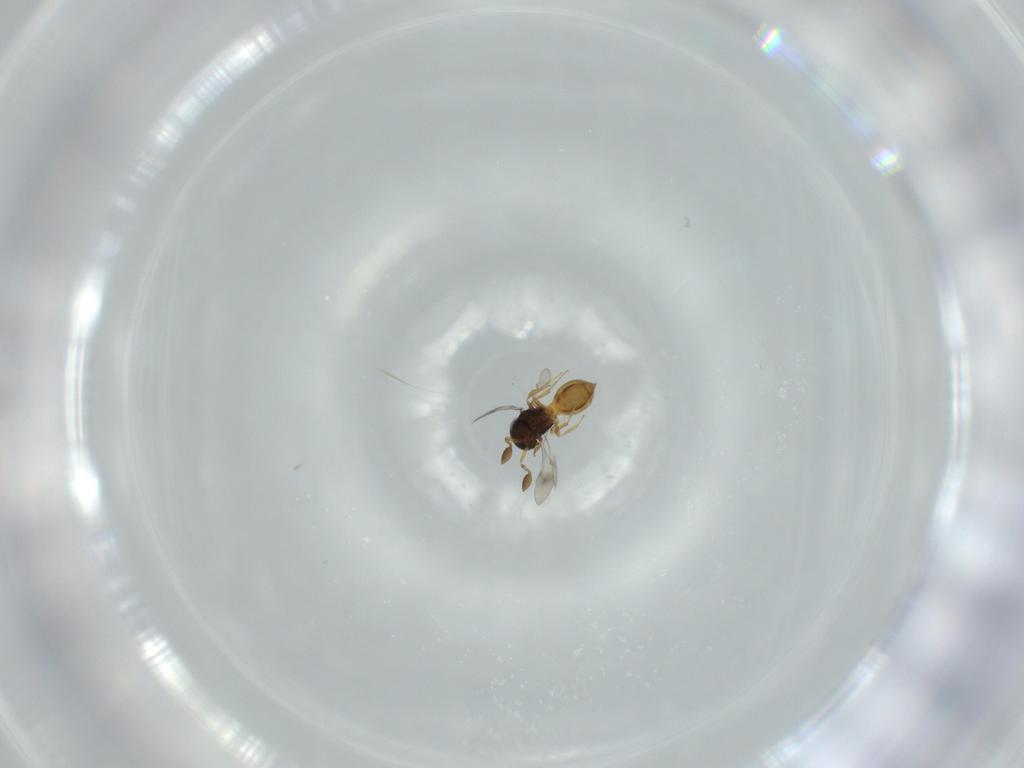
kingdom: Animalia
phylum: Arthropoda
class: Insecta
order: Hymenoptera
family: Scelionidae
